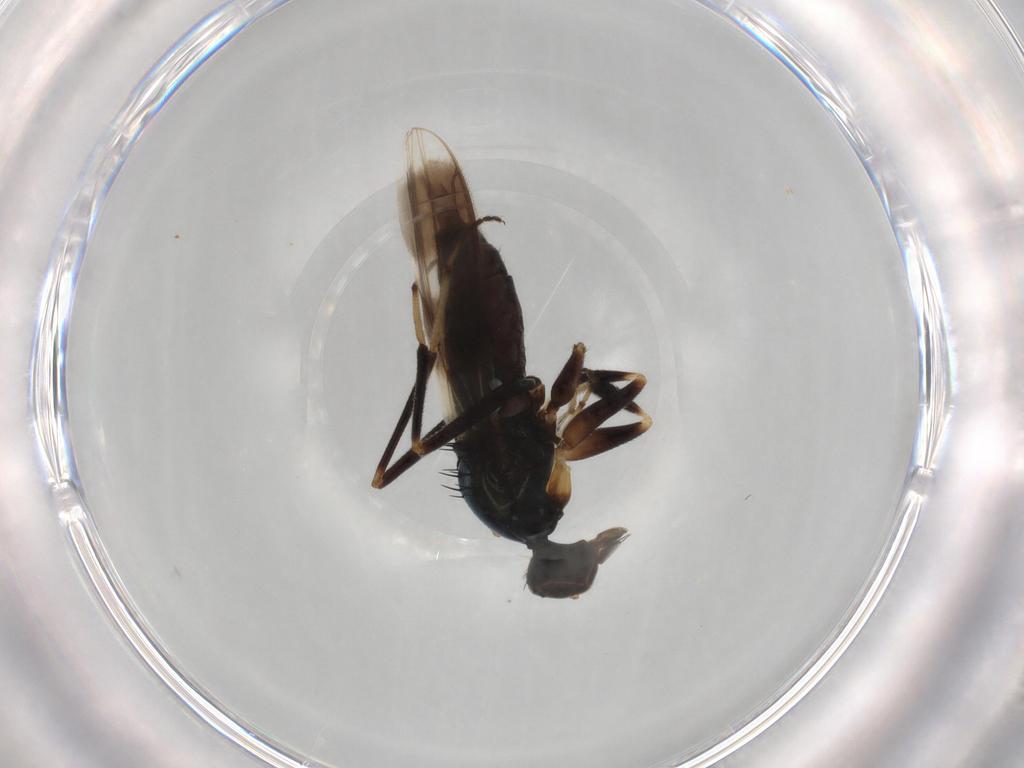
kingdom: Animalia
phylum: Arthropoda
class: Insecta
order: Diptera
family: Hybotidae
